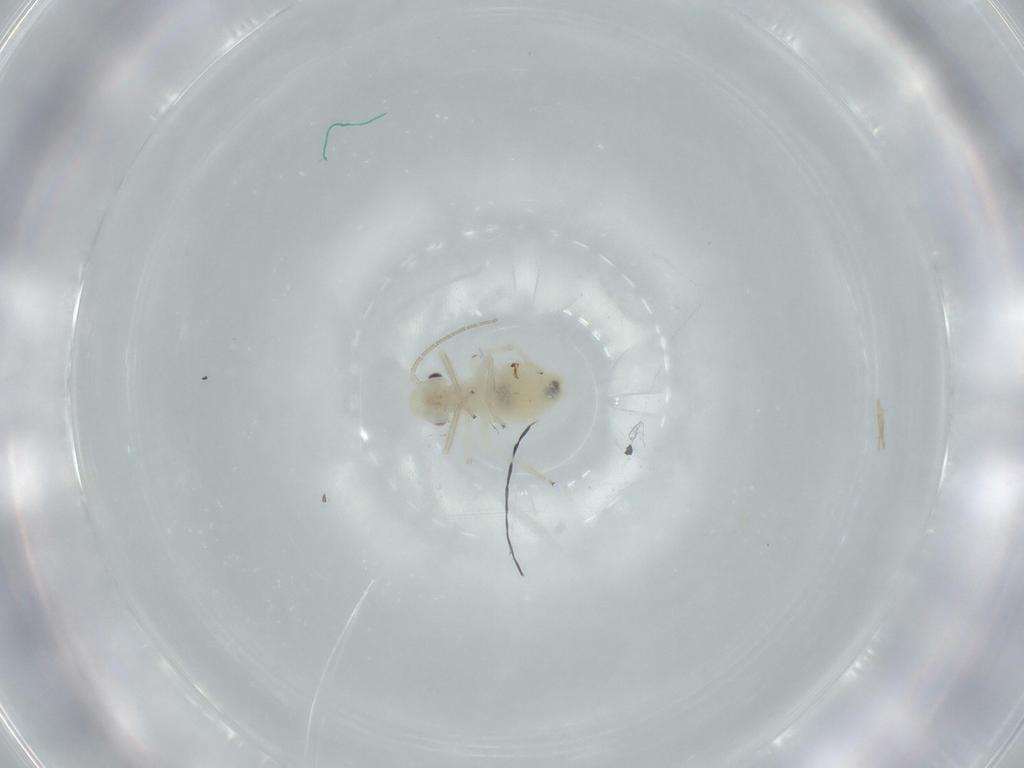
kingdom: Animalia
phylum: Arthropoda
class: Insecta
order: Psocodea
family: Caeciliusidae
